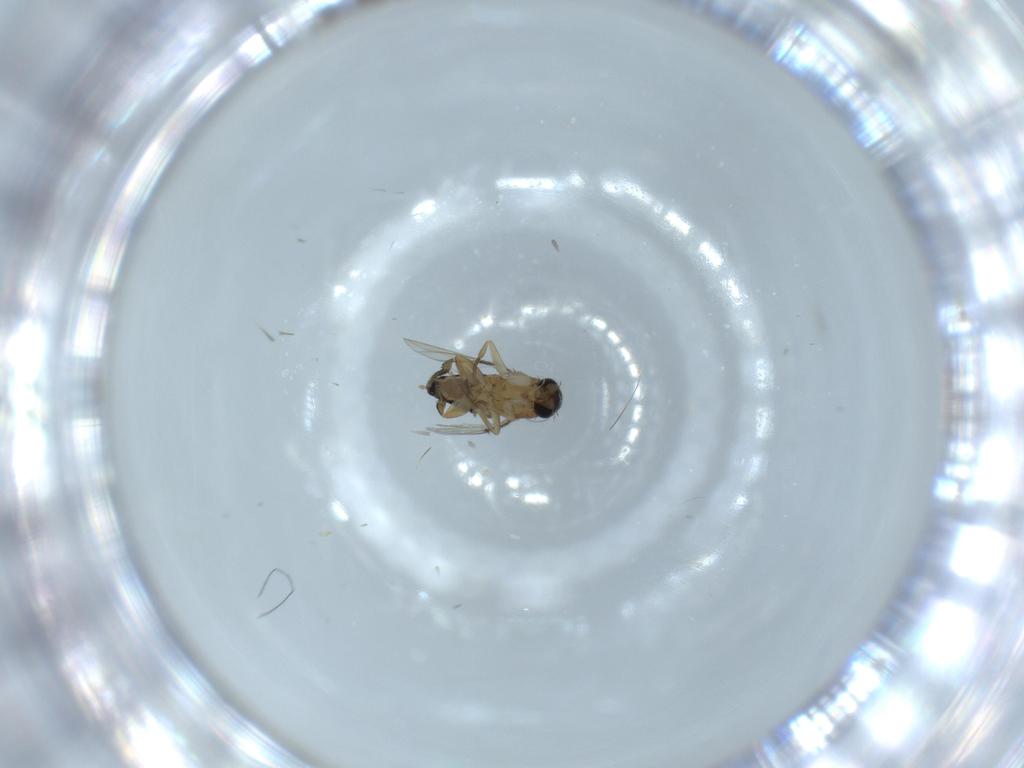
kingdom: Animalia
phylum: Arthropoda
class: Insecta
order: Diptera
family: Phoridae
